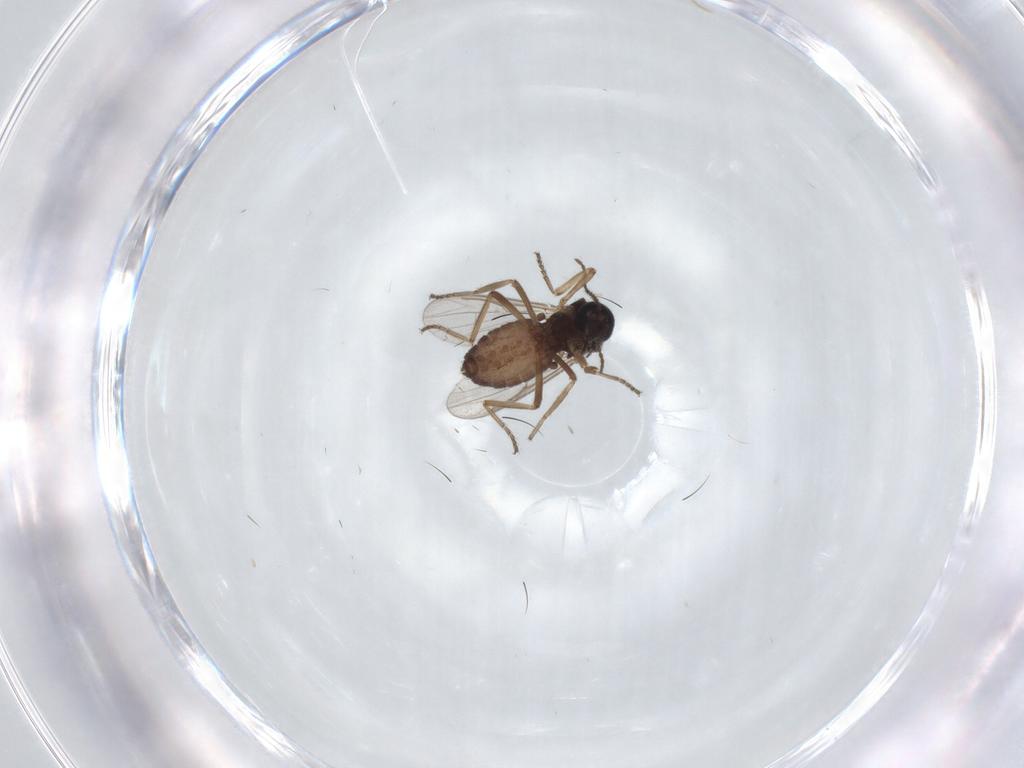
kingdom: Animalia
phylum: Arthropoda
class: Insecta
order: Diptera
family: Ceratopogonidae
